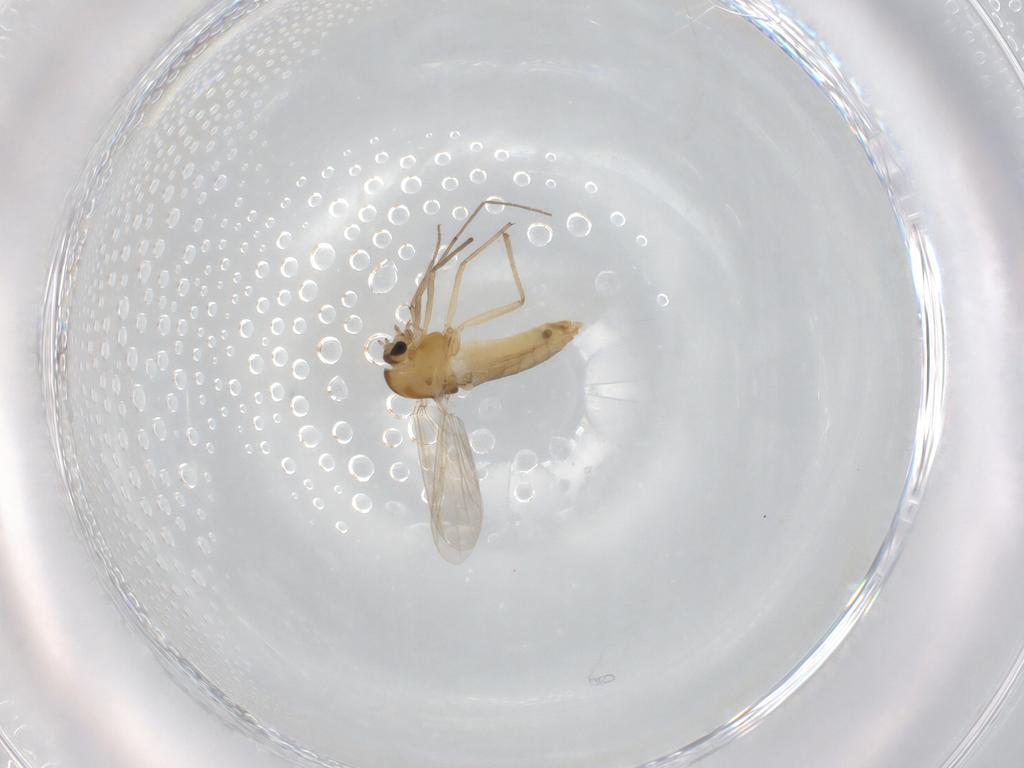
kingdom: Animalia
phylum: Arthropoda
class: Insecta
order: Diptera
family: Chironomidae
